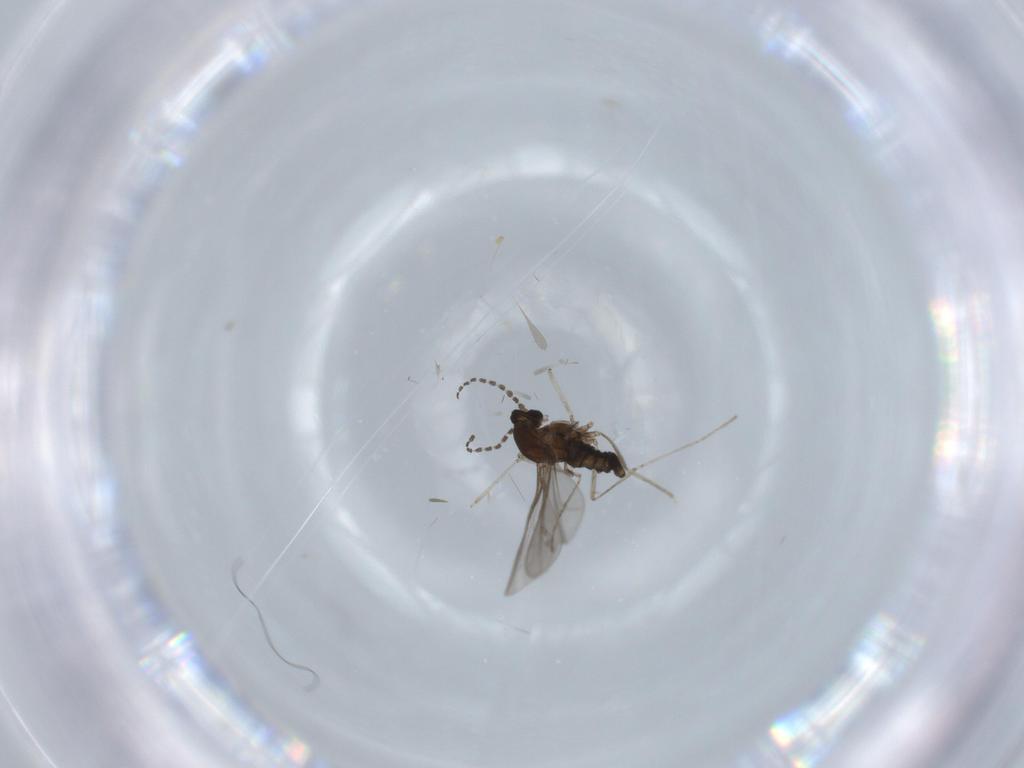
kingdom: Animalia
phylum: Arthropoda
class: Insecta
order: Diptera
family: Cecidomyiidae
